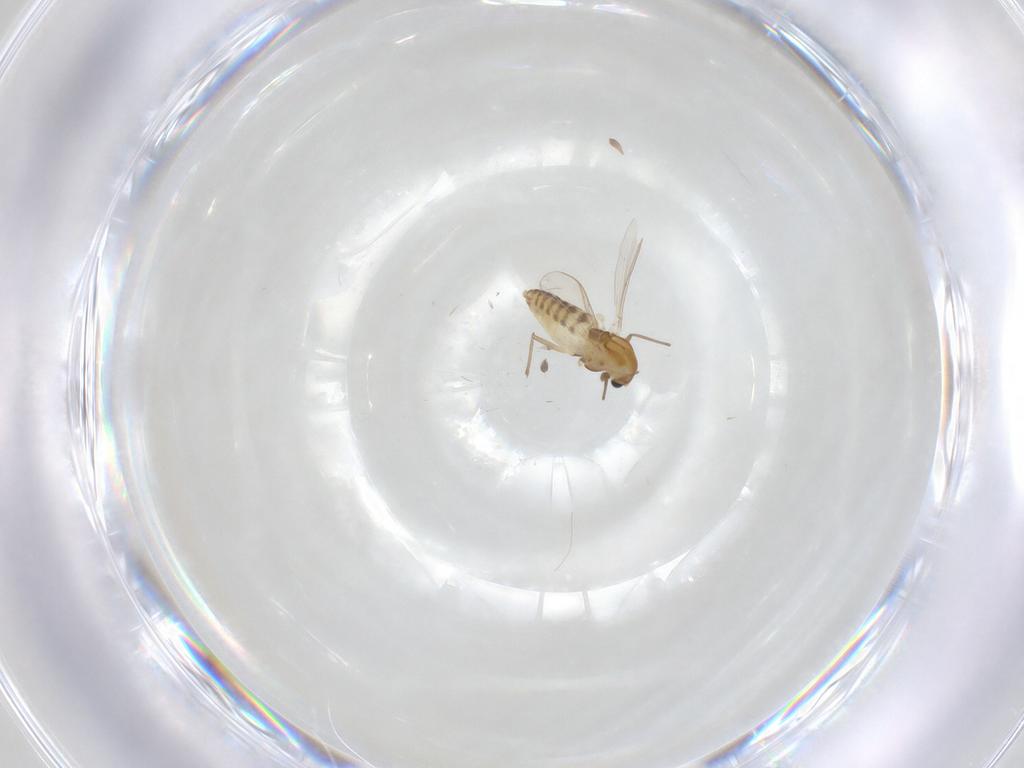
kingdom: Animalia
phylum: Arthropoda
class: Insecta
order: Diptera
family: Chironomidae
